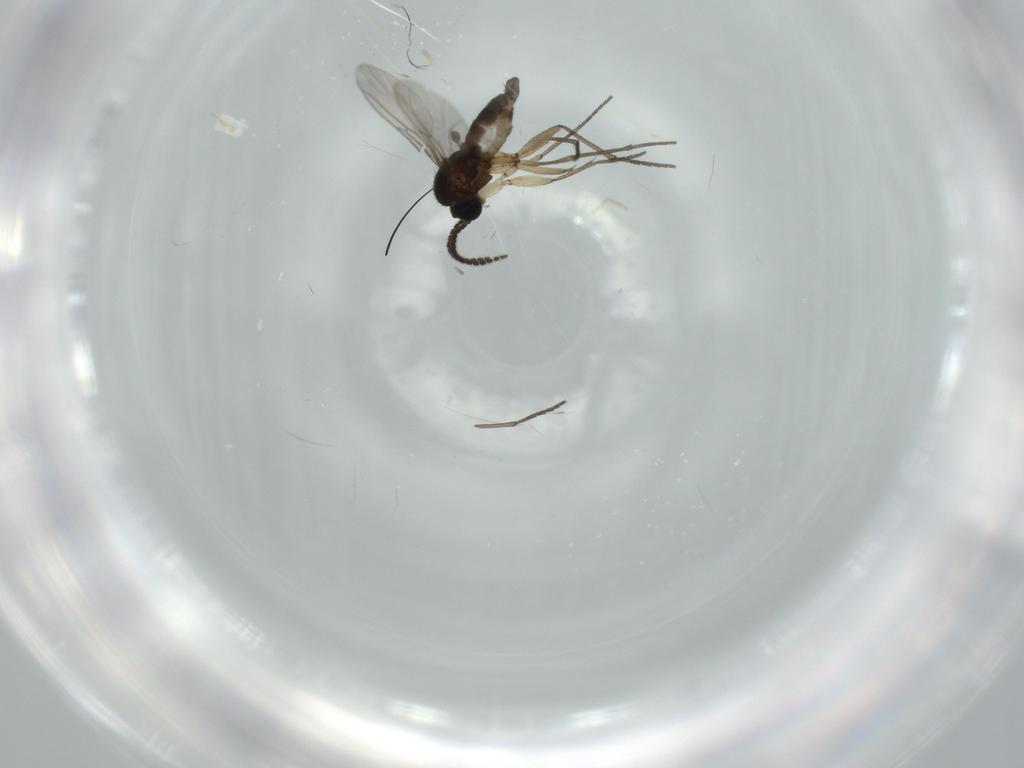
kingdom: Animalia
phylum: Arthropoda
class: Insecta
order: Diptera
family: Sciaridae
